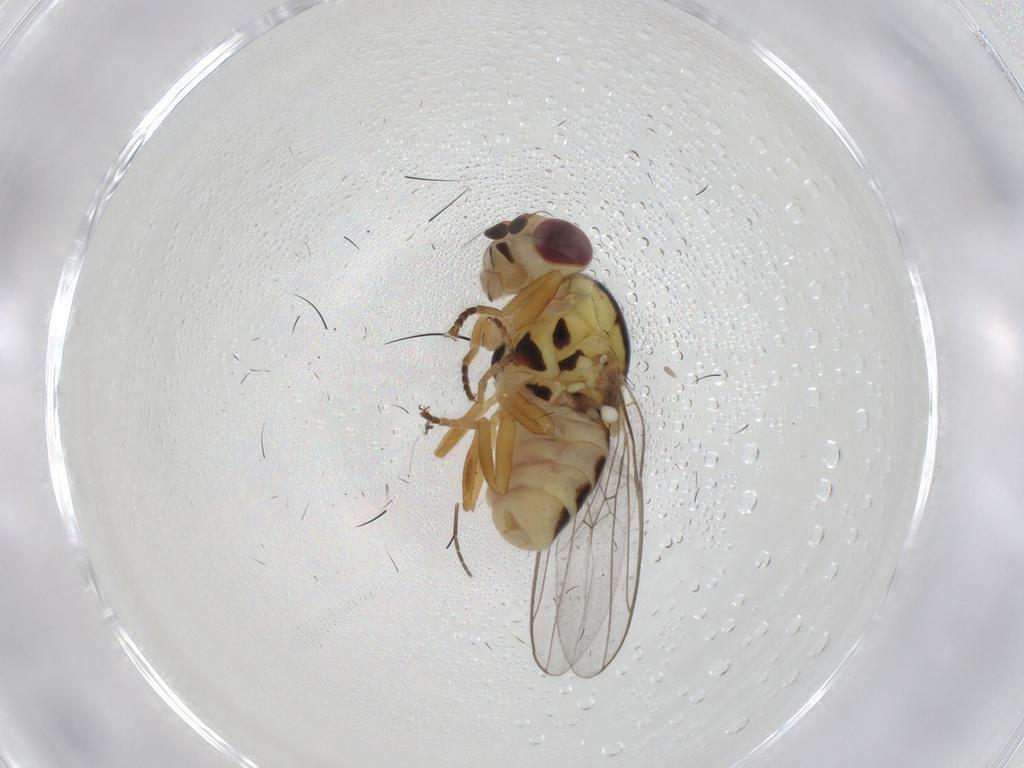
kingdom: Animalia
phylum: Arthropoda
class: Insecta
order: Diptera
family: Chloropidae
